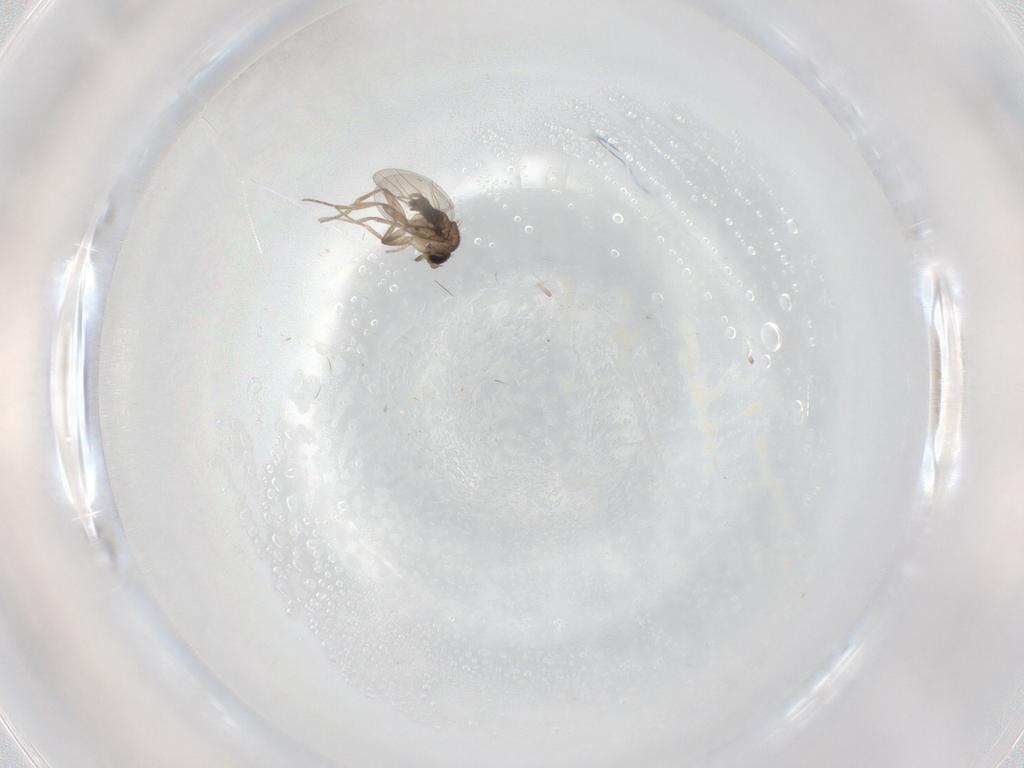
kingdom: Animalia
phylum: Arthropoda
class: Insecta
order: Diptera
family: Phoridae
